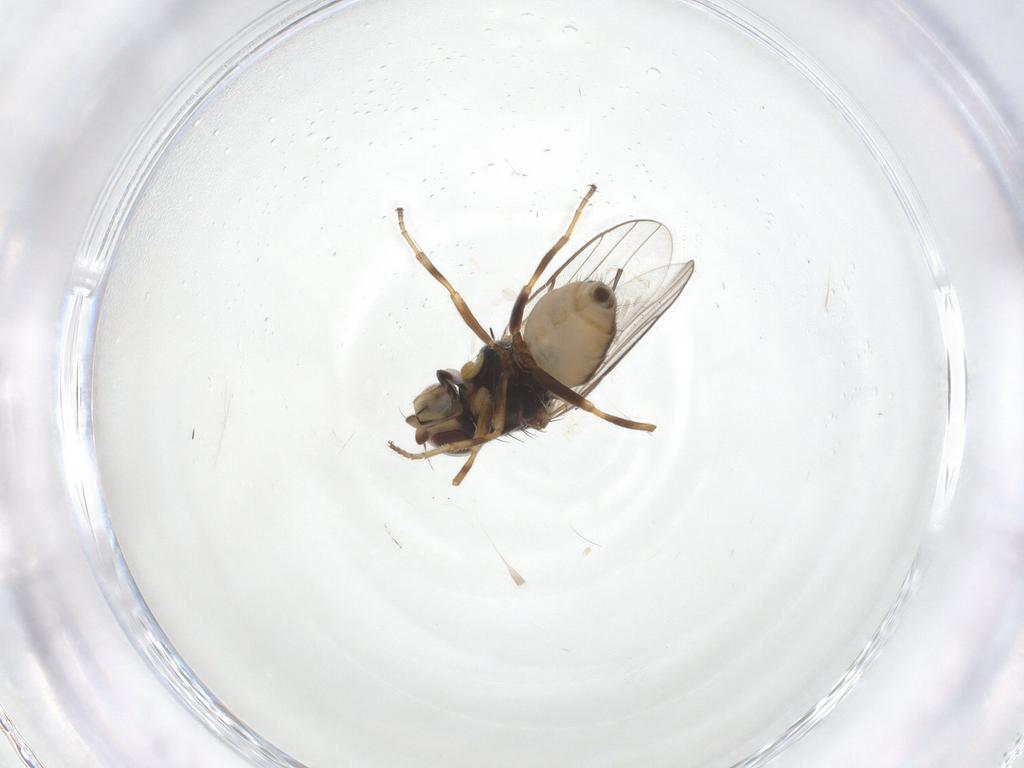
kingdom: Animalia
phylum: Arthropoda
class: Insecta
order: Diptera
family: Chloropidae
